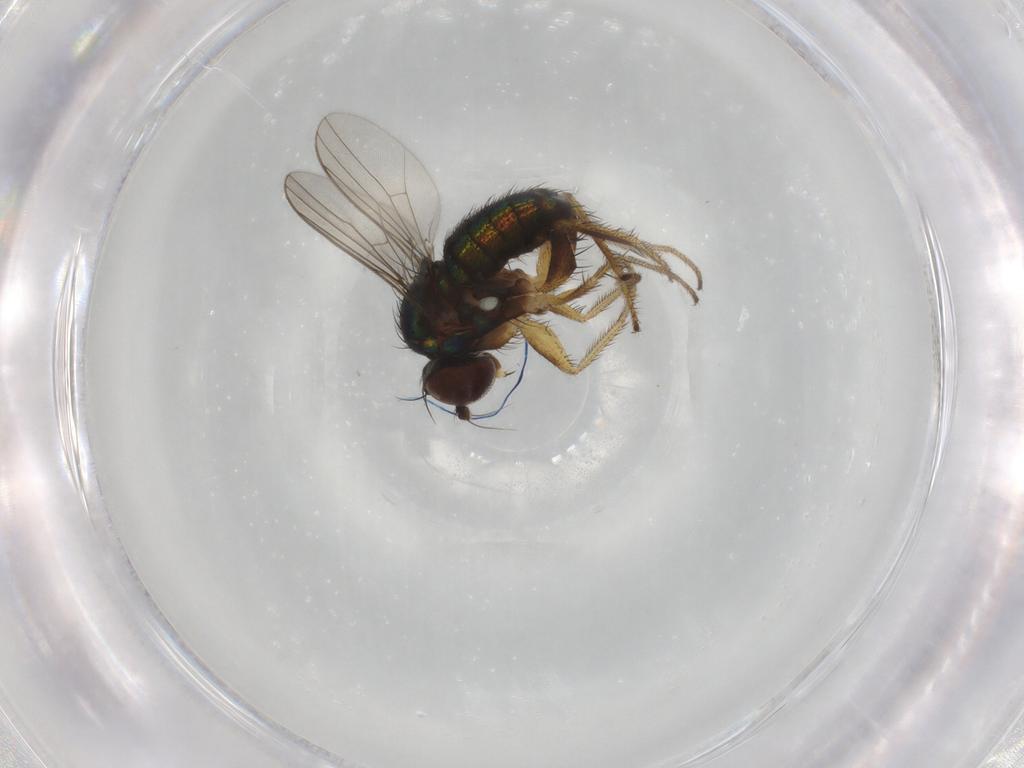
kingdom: Animalia
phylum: Arthropoda
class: Insecta
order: Diptera
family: Dolichopodidae
